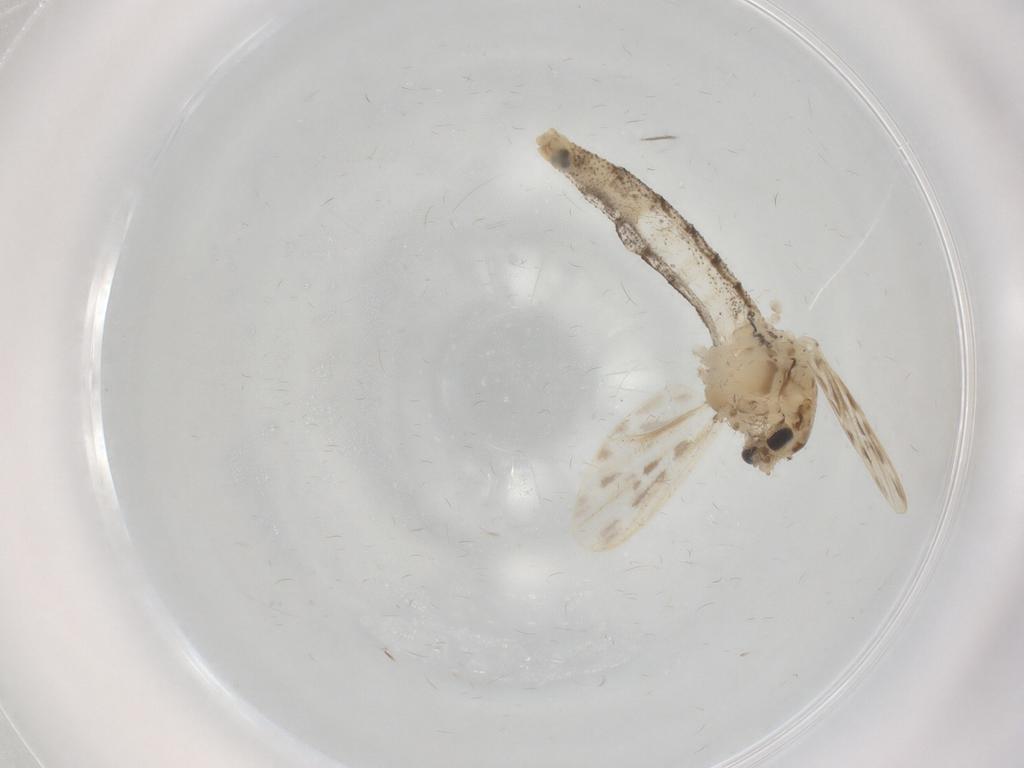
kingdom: Animalia
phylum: Arthropoda
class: Insecta
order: Diptera
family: Chaoboridae
